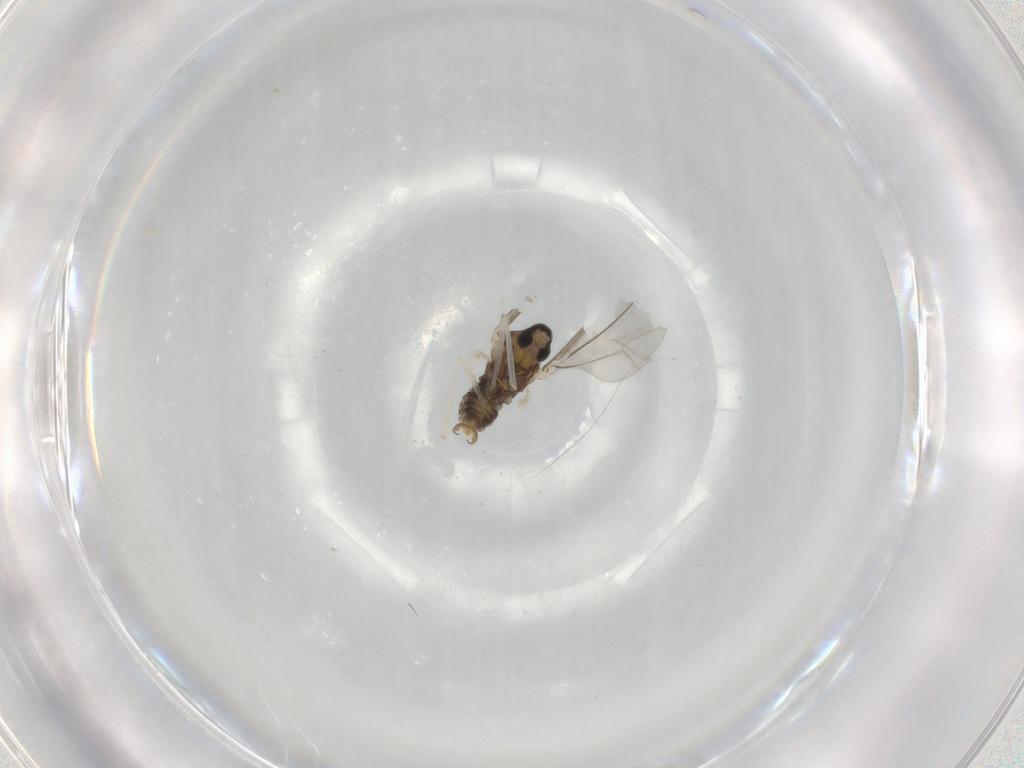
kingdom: Animalia
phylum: Arthropoda
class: Insecta
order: Diptera
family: Cecidomyiidae
